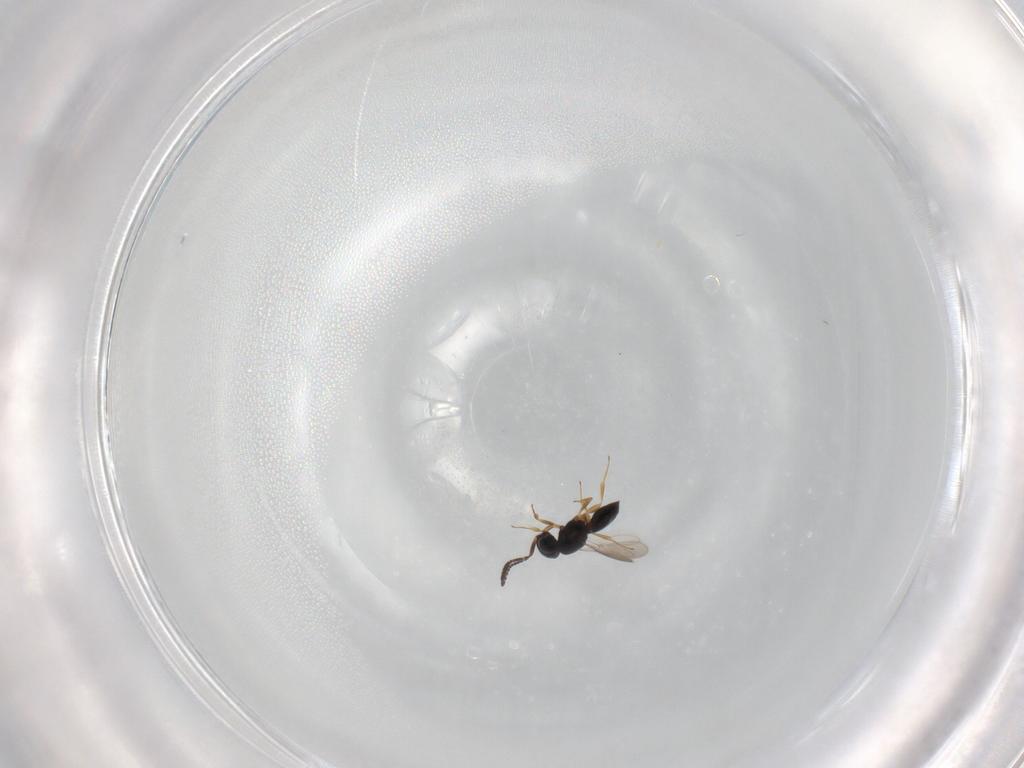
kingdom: Animalia
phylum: Arthropoda
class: Insecta
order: Hymenoptera
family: Scelionidae
